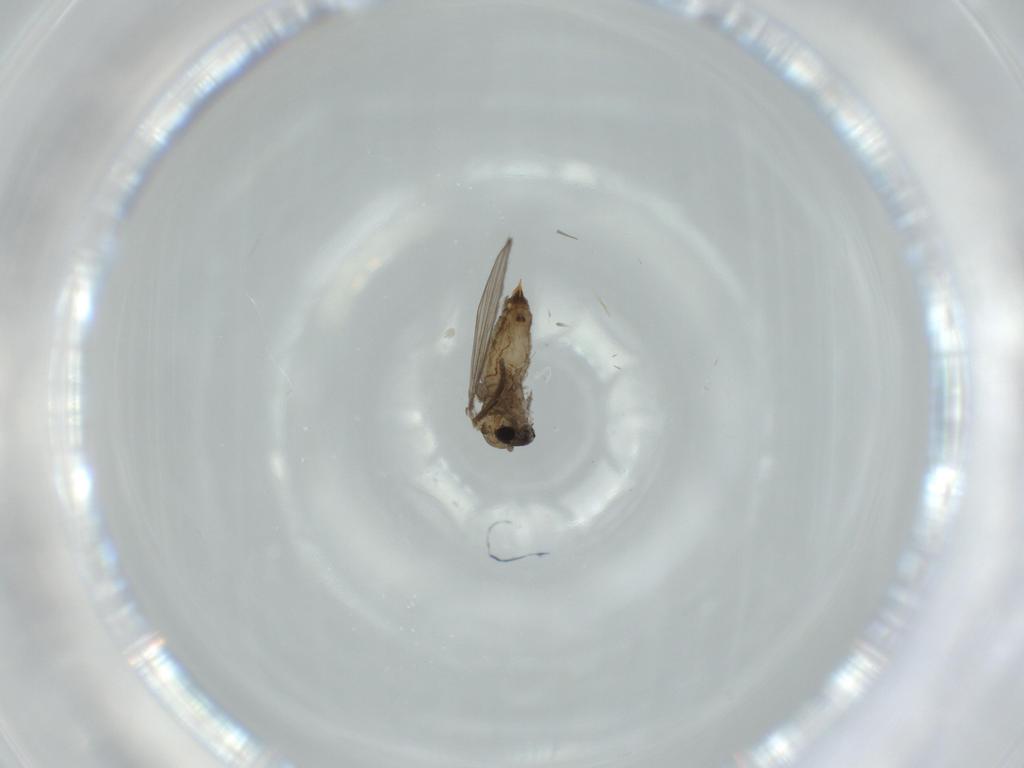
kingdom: Animalia
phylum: Arthropoda
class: Insecta
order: Diptera
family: Psychodidae
